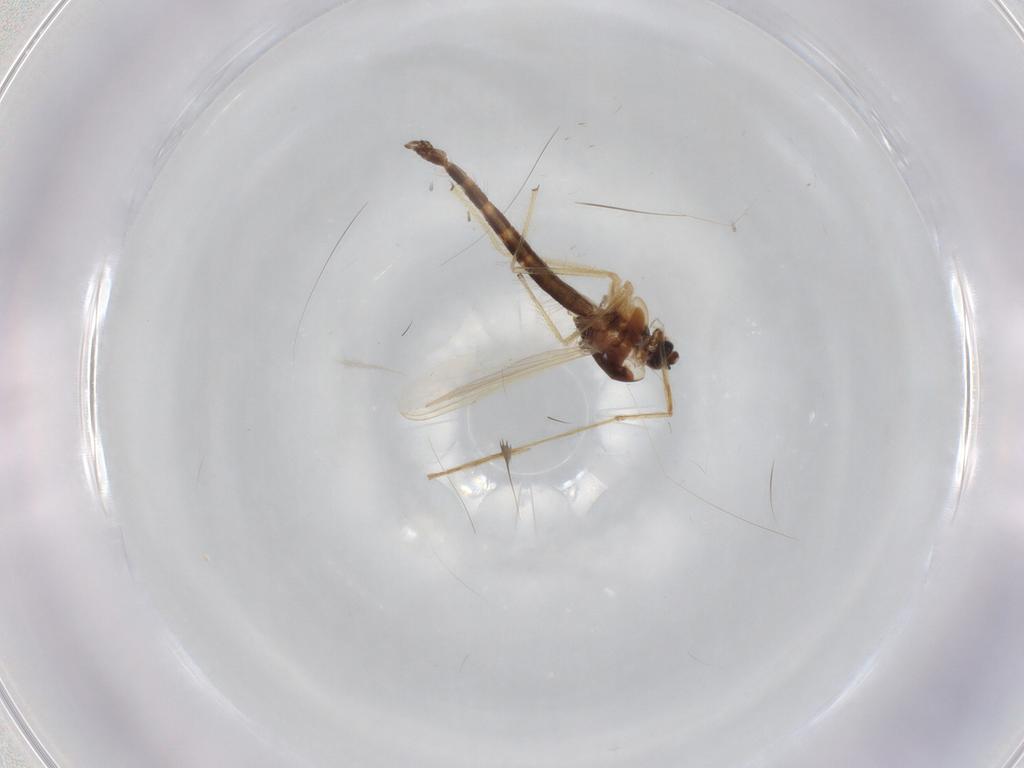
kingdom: Animalia
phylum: Arthropoda
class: Insecta
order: Diptera
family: Chironomidae
